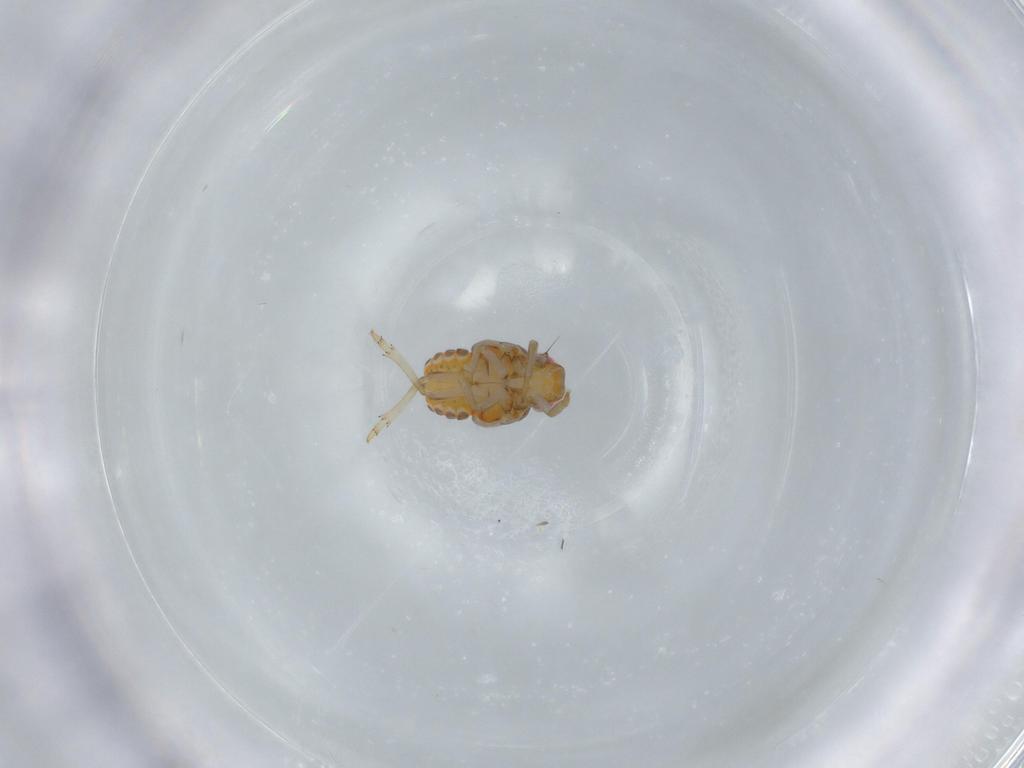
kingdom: Animalia
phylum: Arthropoda
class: Insecta
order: Hemiptera
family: Issidae
